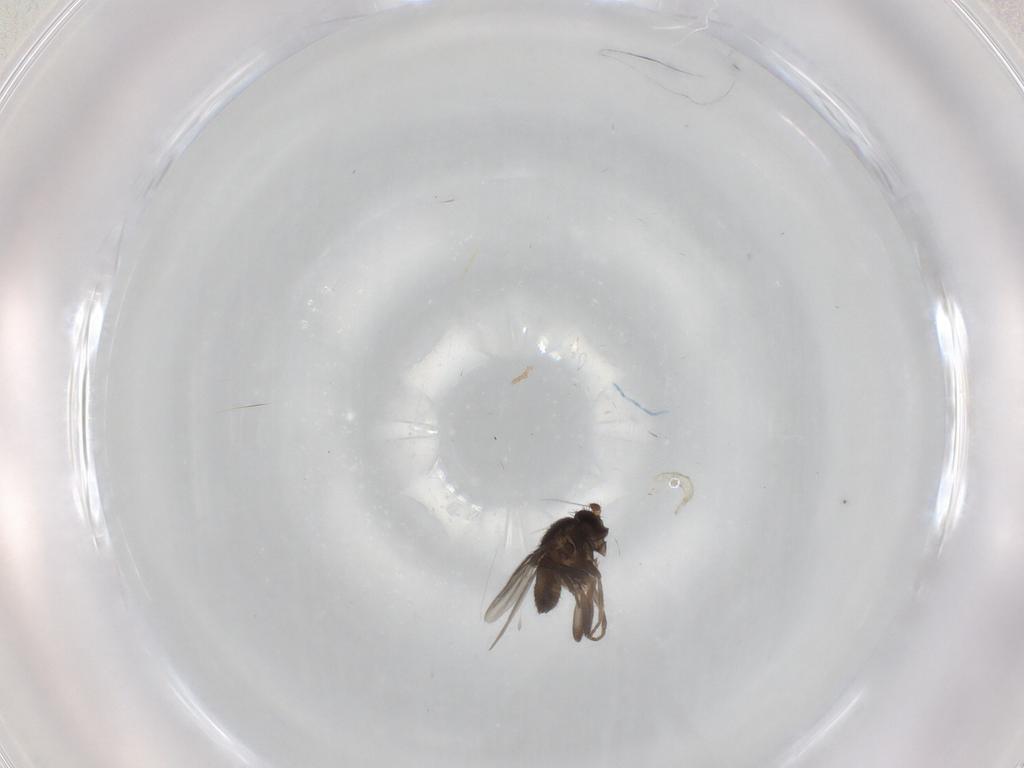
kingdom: Animalia
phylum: Arthropoda
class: Insecta
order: Diptera
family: Sphaeroceridae
